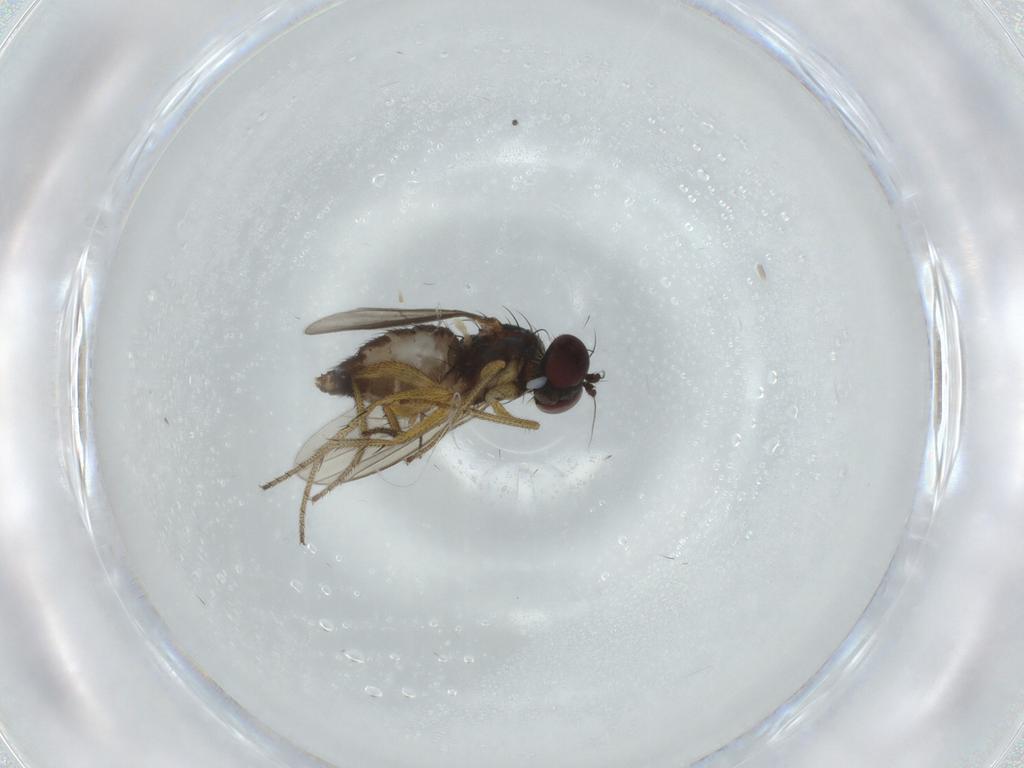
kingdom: Animalia
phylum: Arthropoda
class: Insecta
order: Diptera
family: Sciaridae
